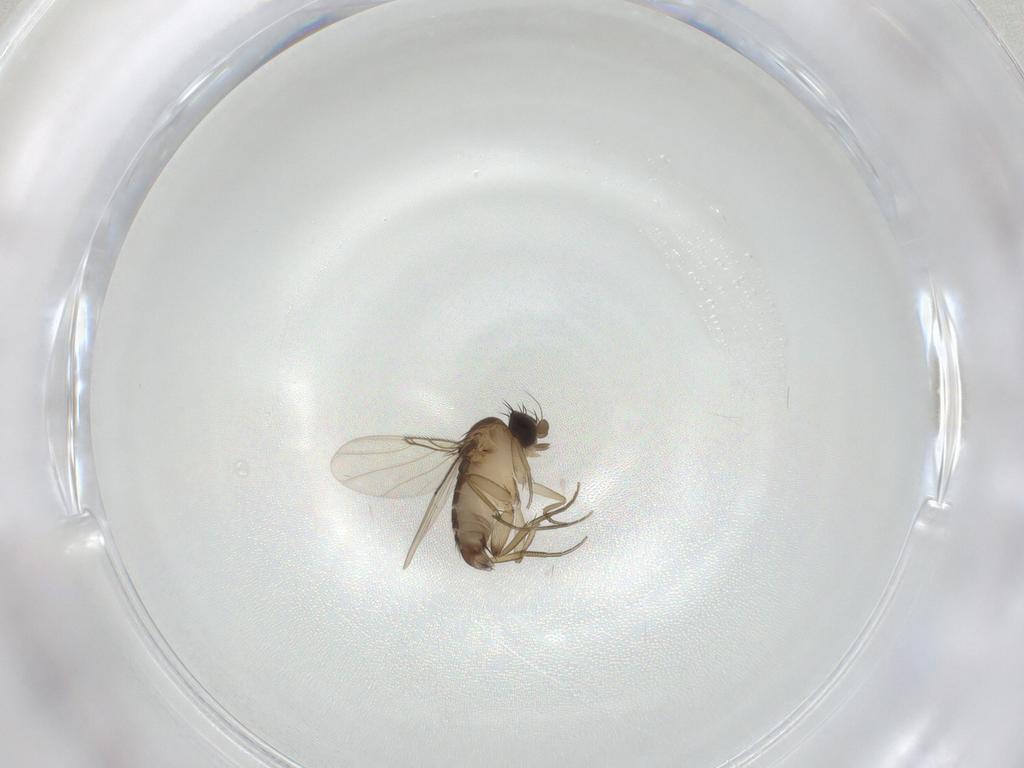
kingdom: Animalia
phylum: Arthropoda
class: Insecta
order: Diptera
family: Phoridae
